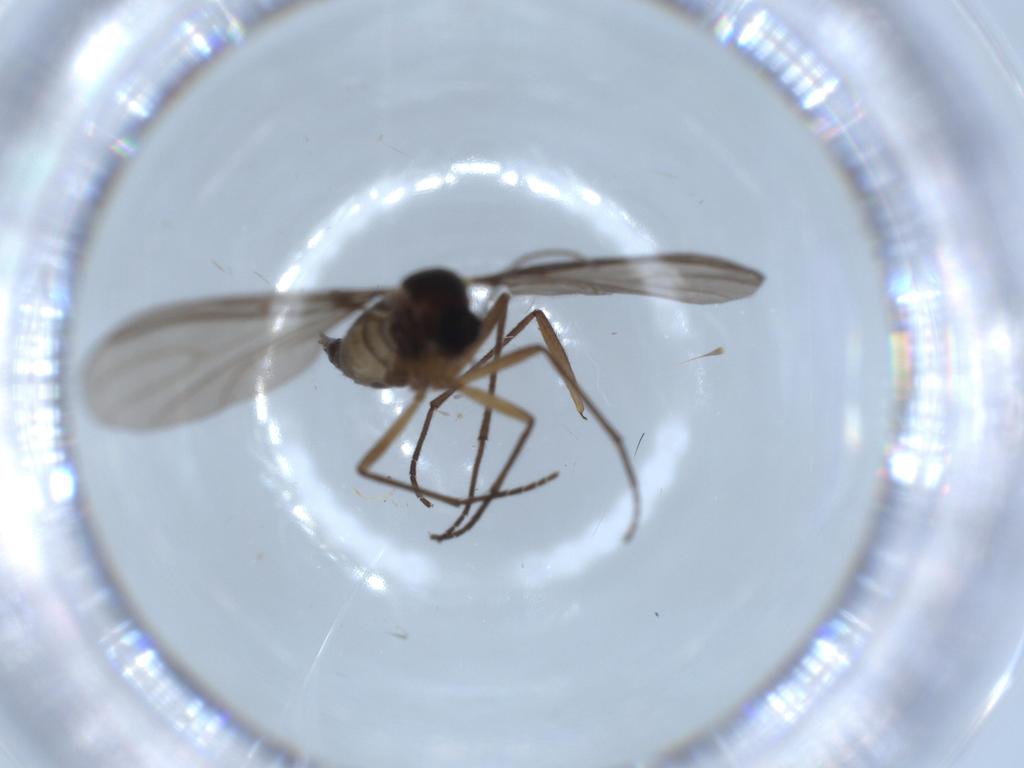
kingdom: Animalia
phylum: Arthropoda
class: Insecta
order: Diptera
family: Sciaridae
